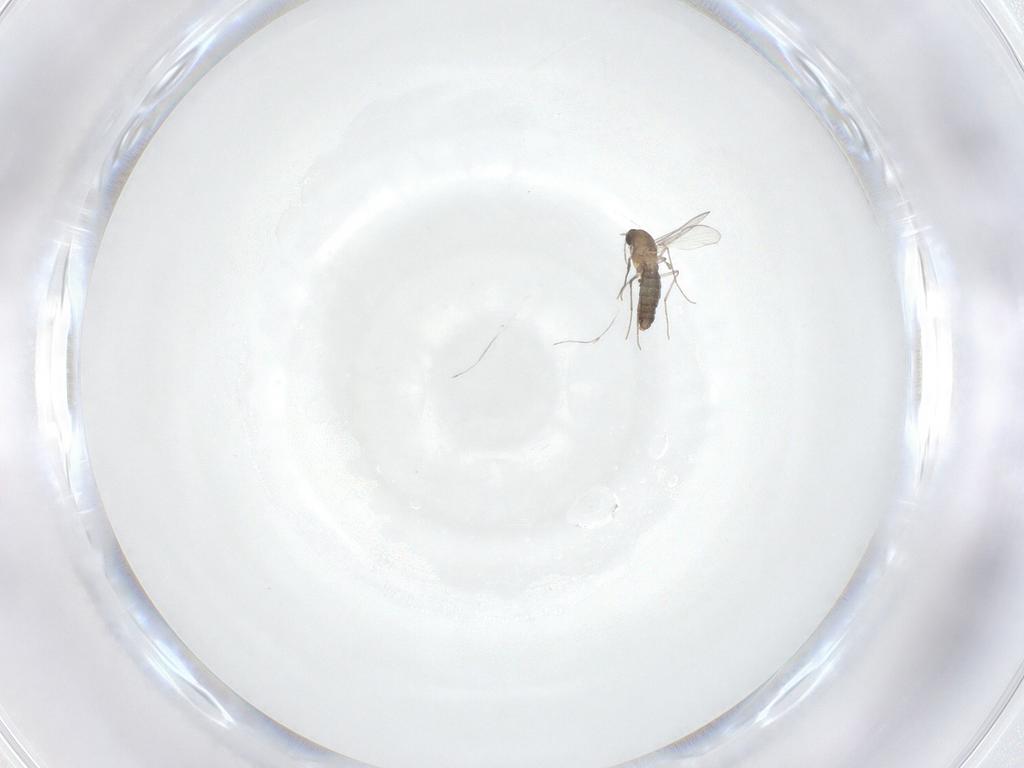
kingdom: Animalia
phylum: Arthropoda
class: Insecta
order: Diptera
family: Chironomidae
